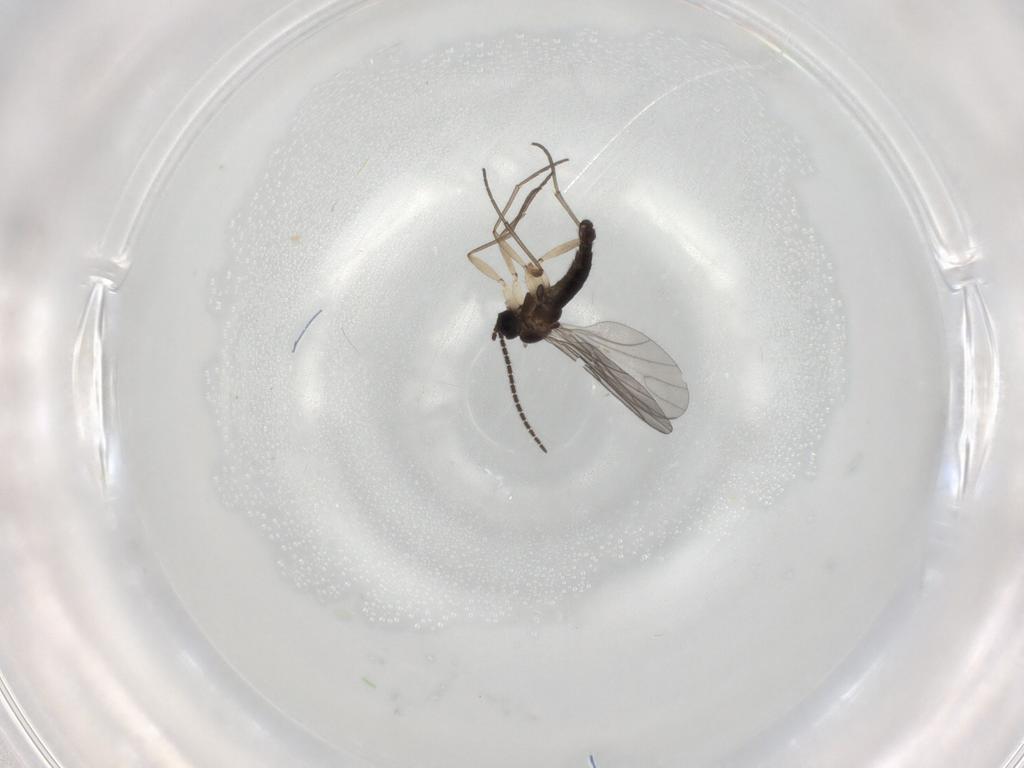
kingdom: Animalia
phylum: Arthropoda
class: Insecta
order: Diptera
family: Sciaridae
